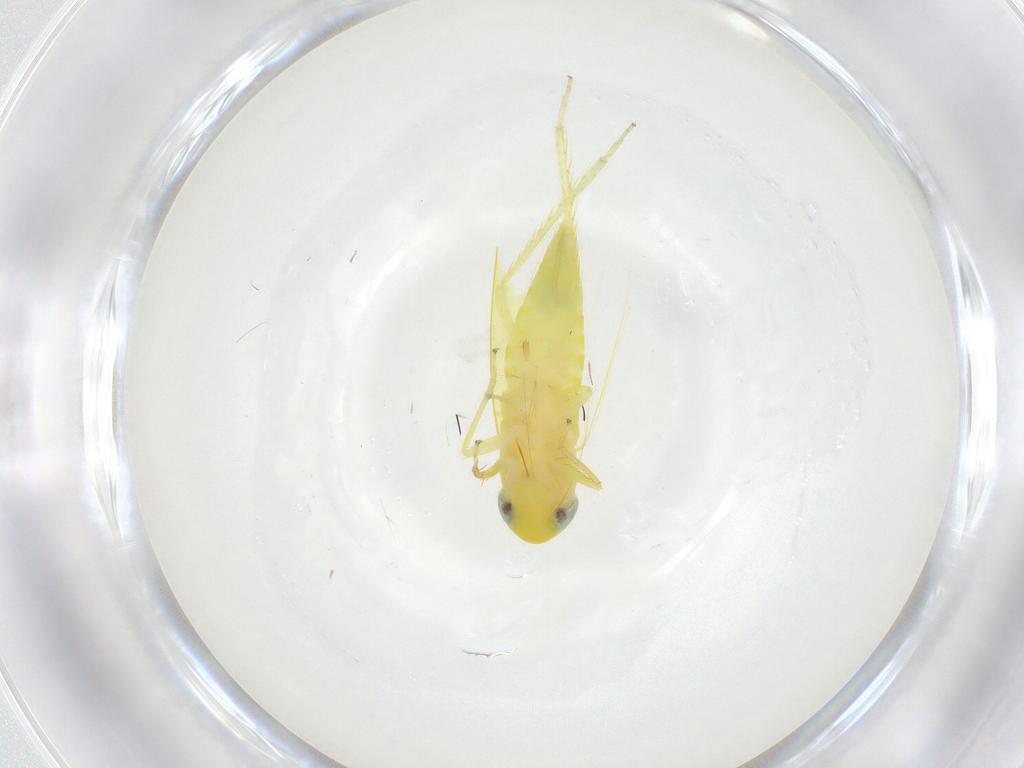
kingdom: Animalia
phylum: Arthropoda
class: Insecta
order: Hemiptera
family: Cicadellidae
